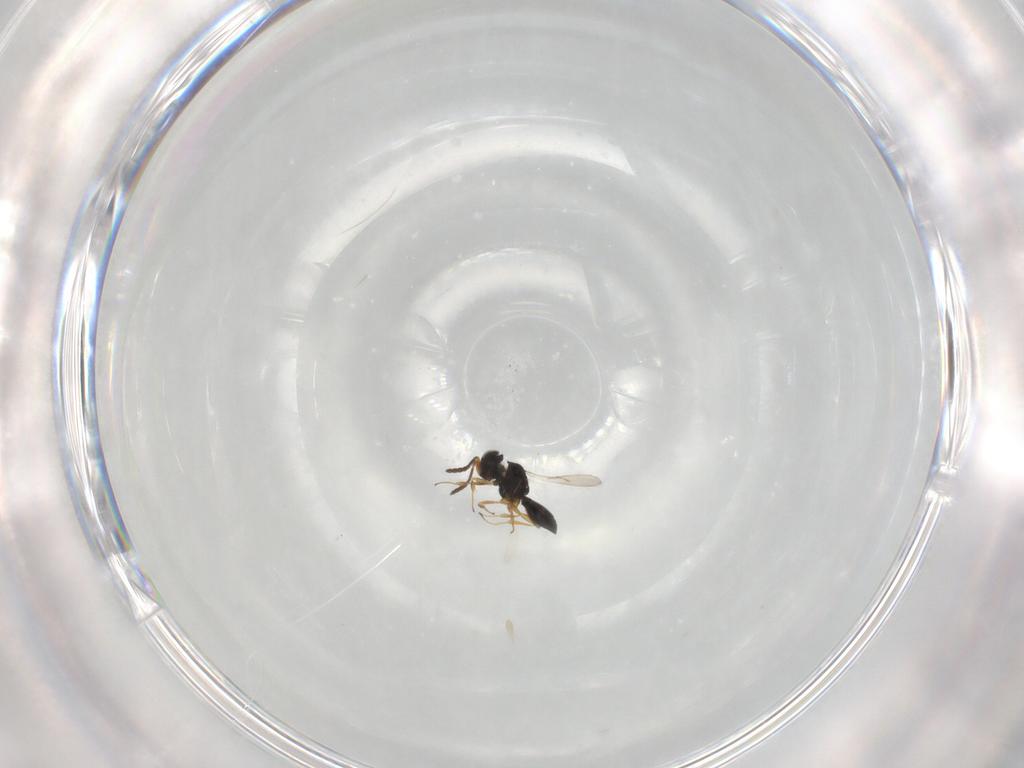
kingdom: Animalia
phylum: Arthropoda
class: Insecta
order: Hymenoptera
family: Scelionidae
